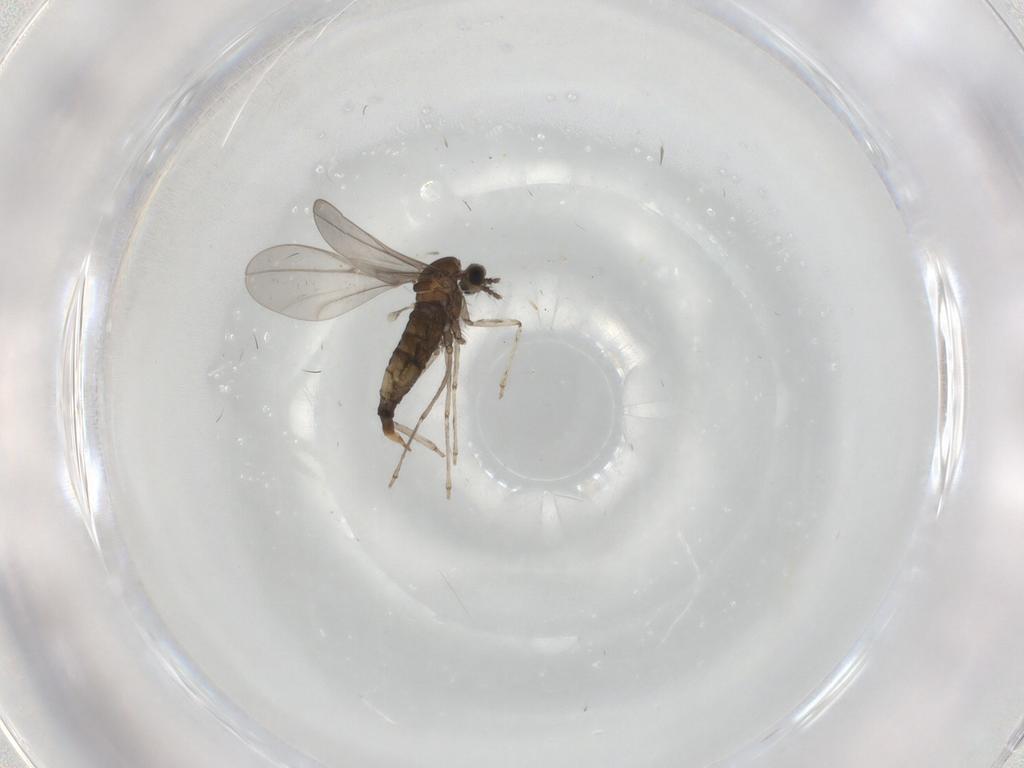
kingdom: Animalia
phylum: Arthropoda
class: Insecta
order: Diptera
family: Cecidomyiidae
